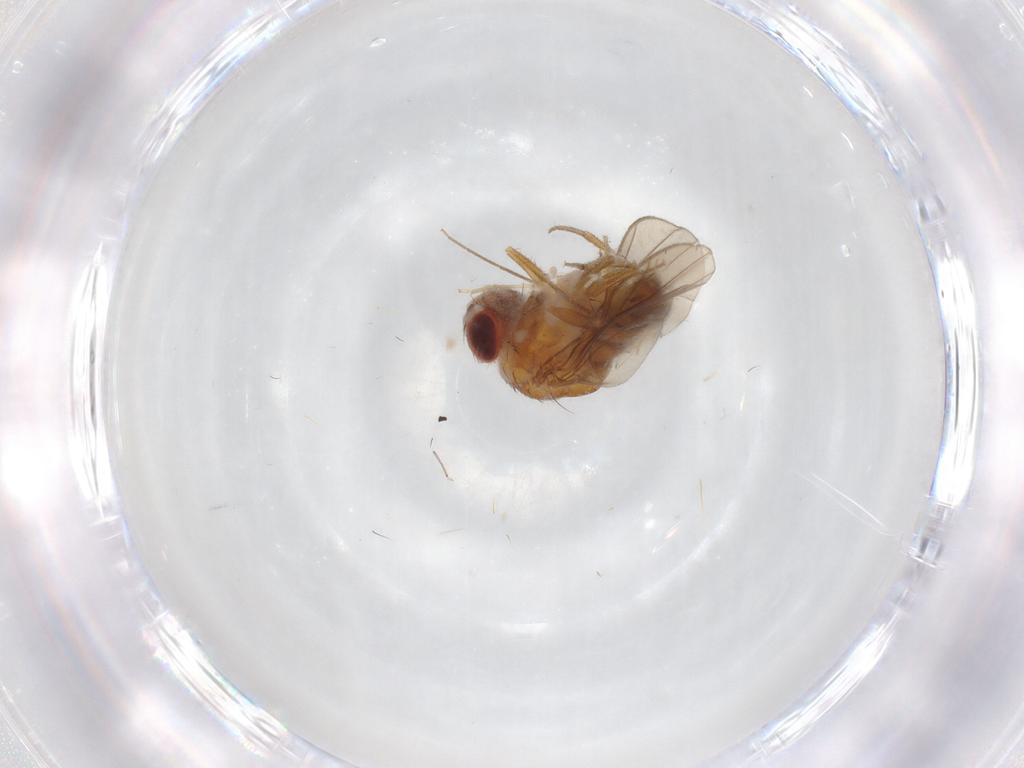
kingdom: Animalia
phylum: Arthropoda
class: Insecta
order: Diptera
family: Chironomidae
